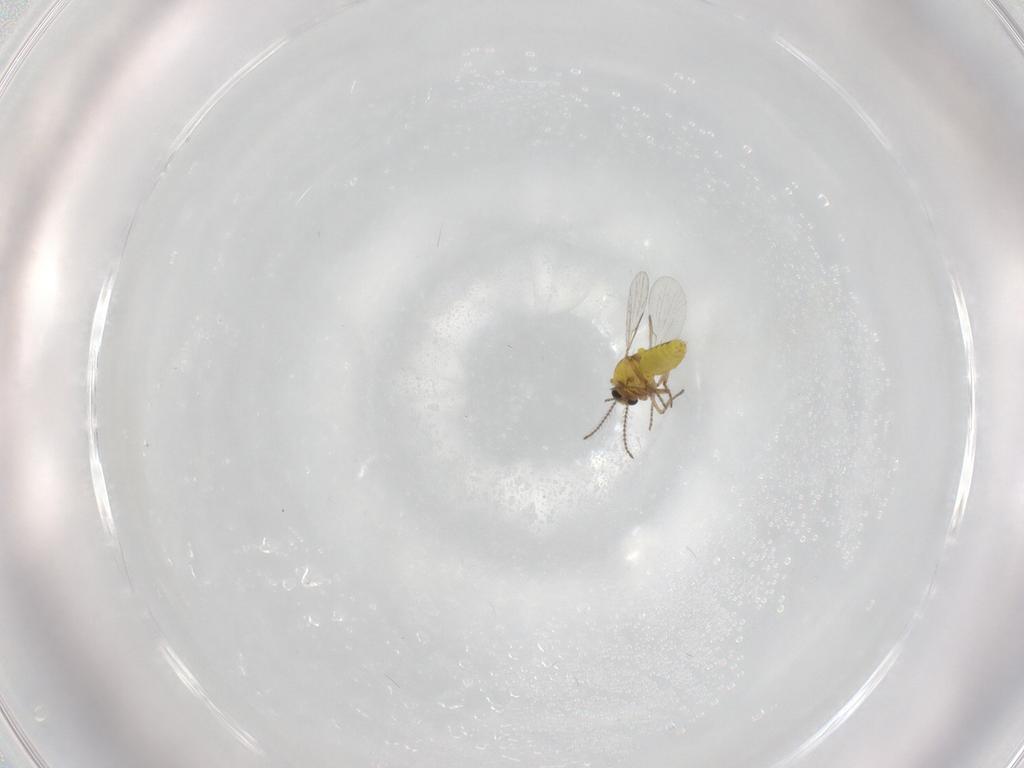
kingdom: Animalia
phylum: Arthropoda
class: Insecta
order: Diptera
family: Ceratopogonidae
